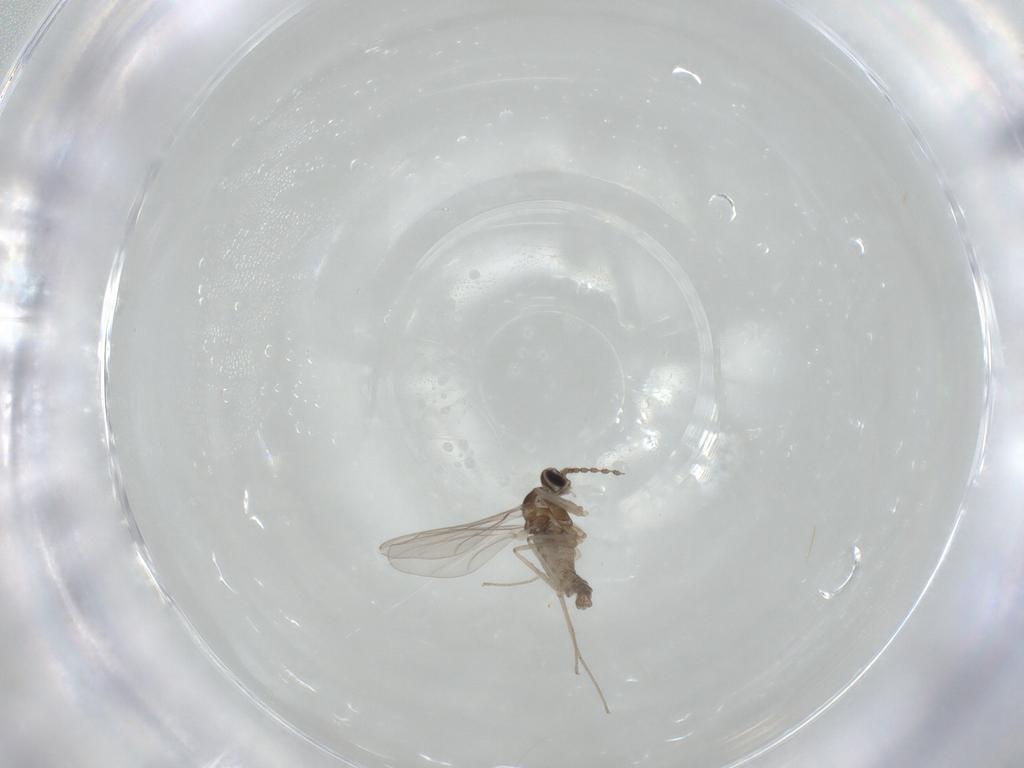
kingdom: Animalia
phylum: Arthropoda
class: Insecta
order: Diptera
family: Cecidomyiidae
